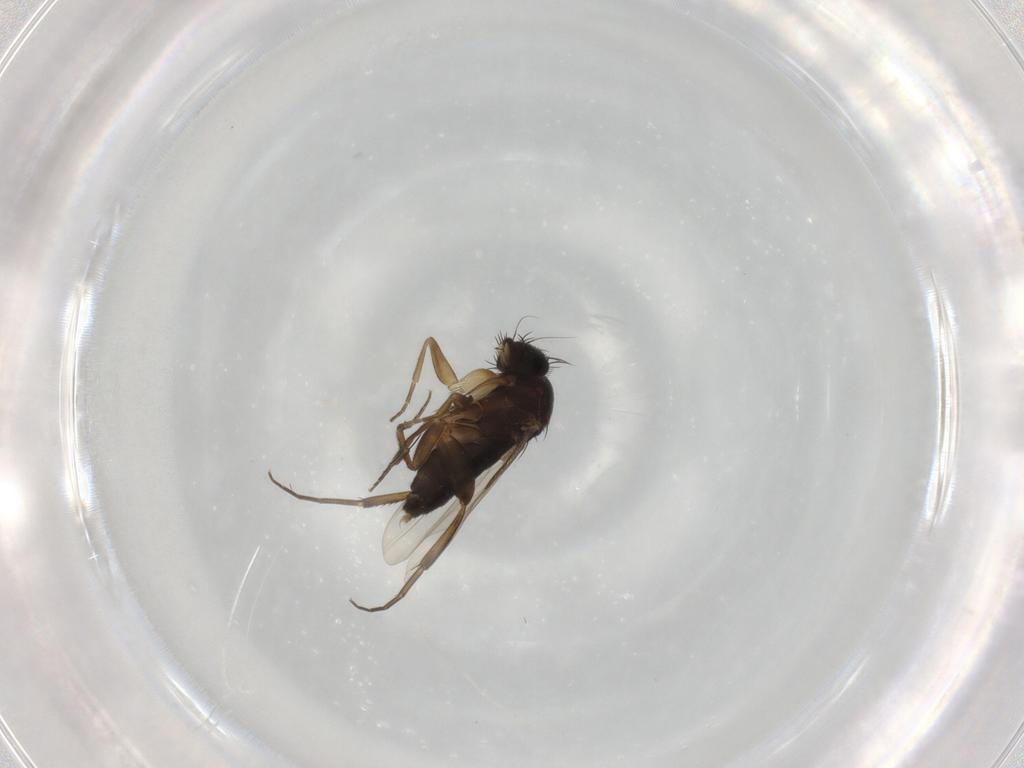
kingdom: Animalia
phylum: Arthropoda
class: Insecta
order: Diptera
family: Phoridae
